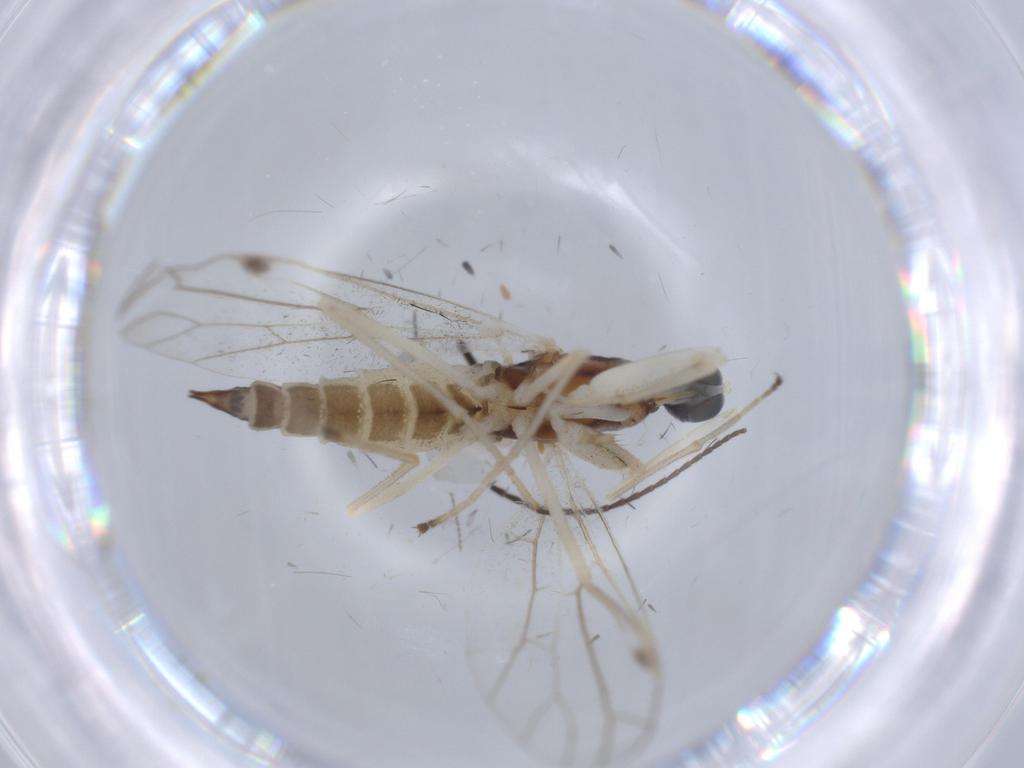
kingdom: Animalia
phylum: Arthropoda
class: Insecta
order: Diptera
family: Empididae
